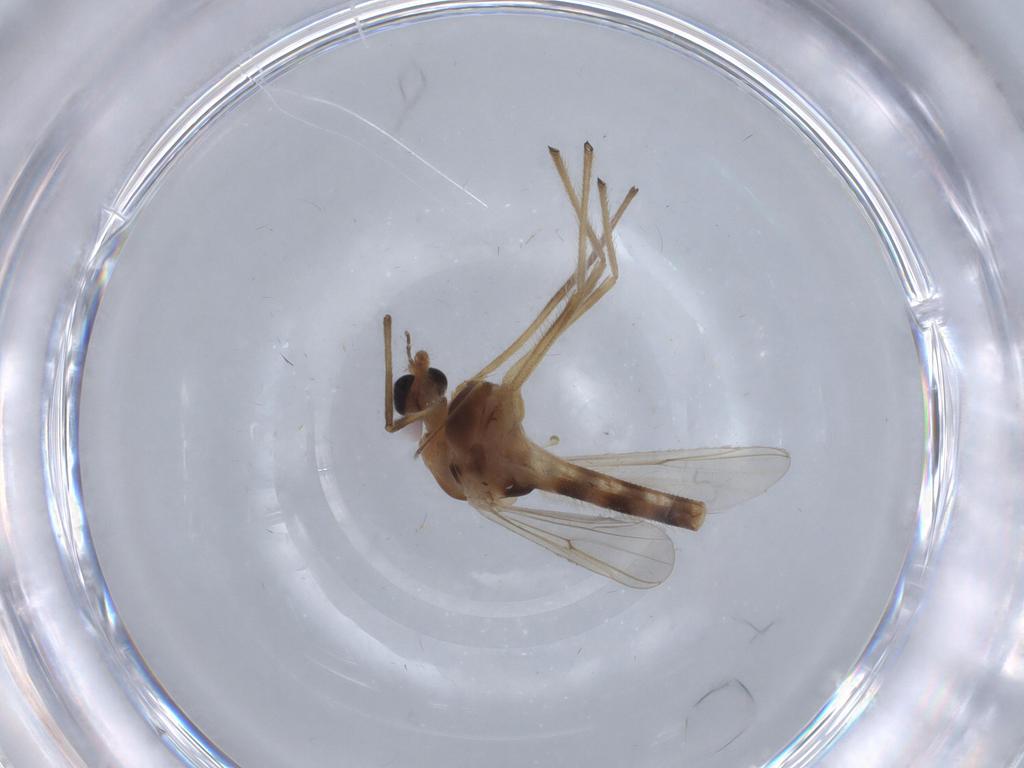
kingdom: Animalia
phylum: Arthropoda
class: Insecta
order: Diptera
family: Chironomidae
